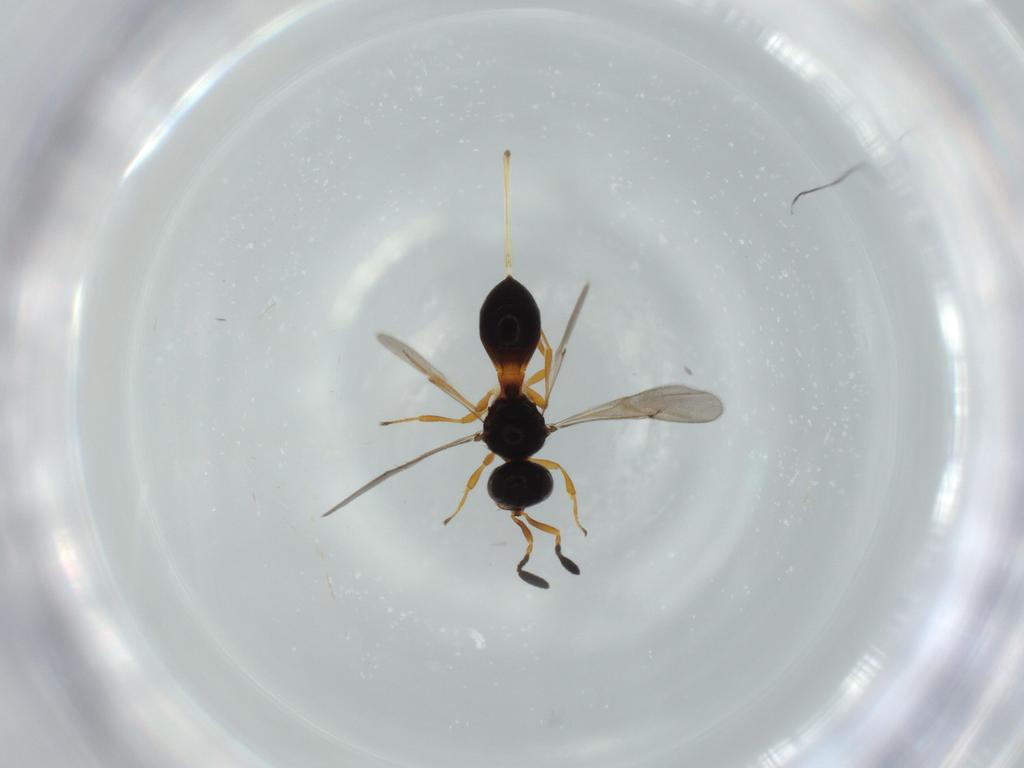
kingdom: Animalia
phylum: Arthropoda
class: Insecta
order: Hymenoptera
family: Scelionidae
